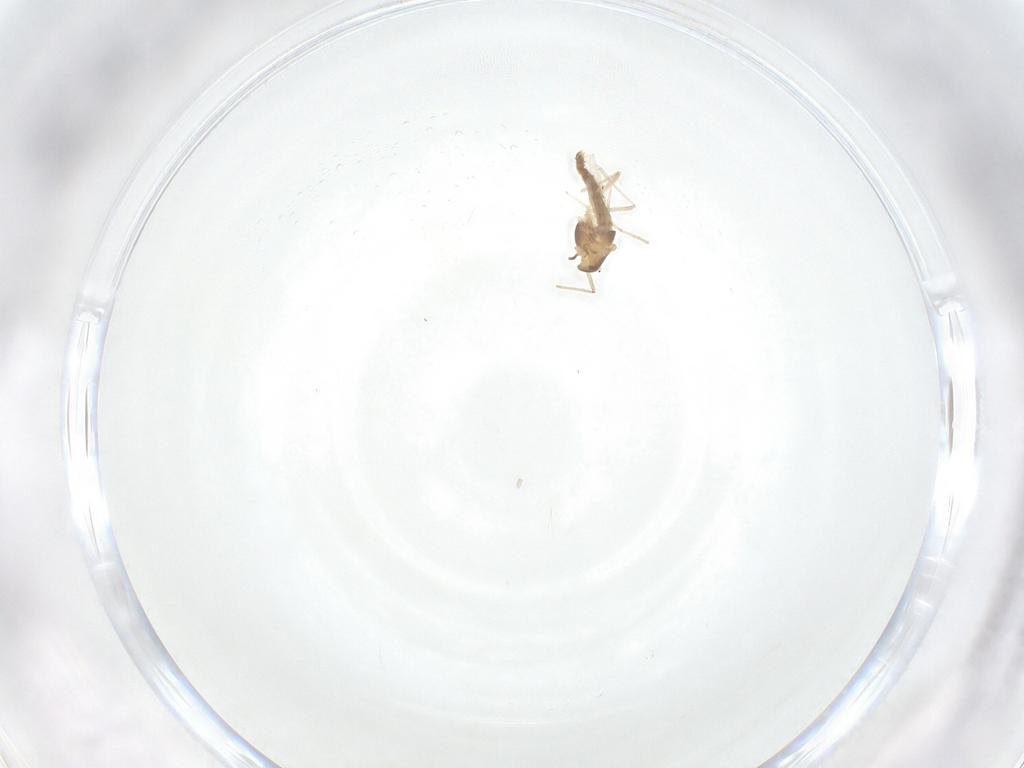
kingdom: Animalia
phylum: Arthropoda
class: Insecta
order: Diptera
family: Chironomidae
